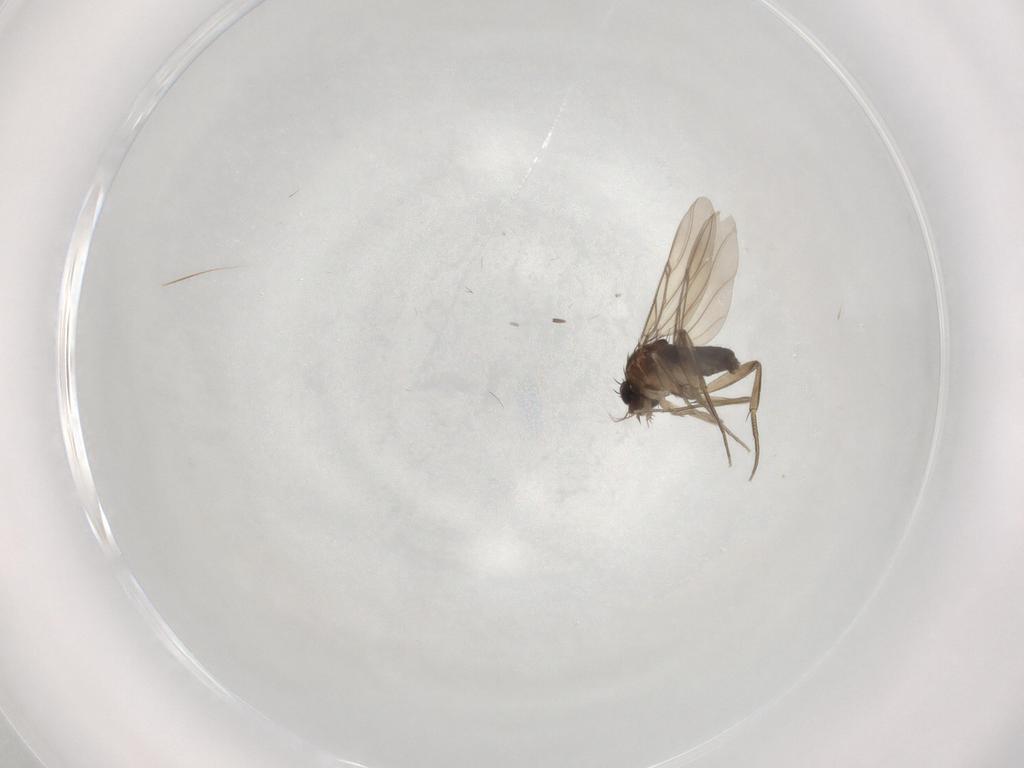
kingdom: Animalia
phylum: Arthropoda
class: Insecta
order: Diptera
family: Phoridae
